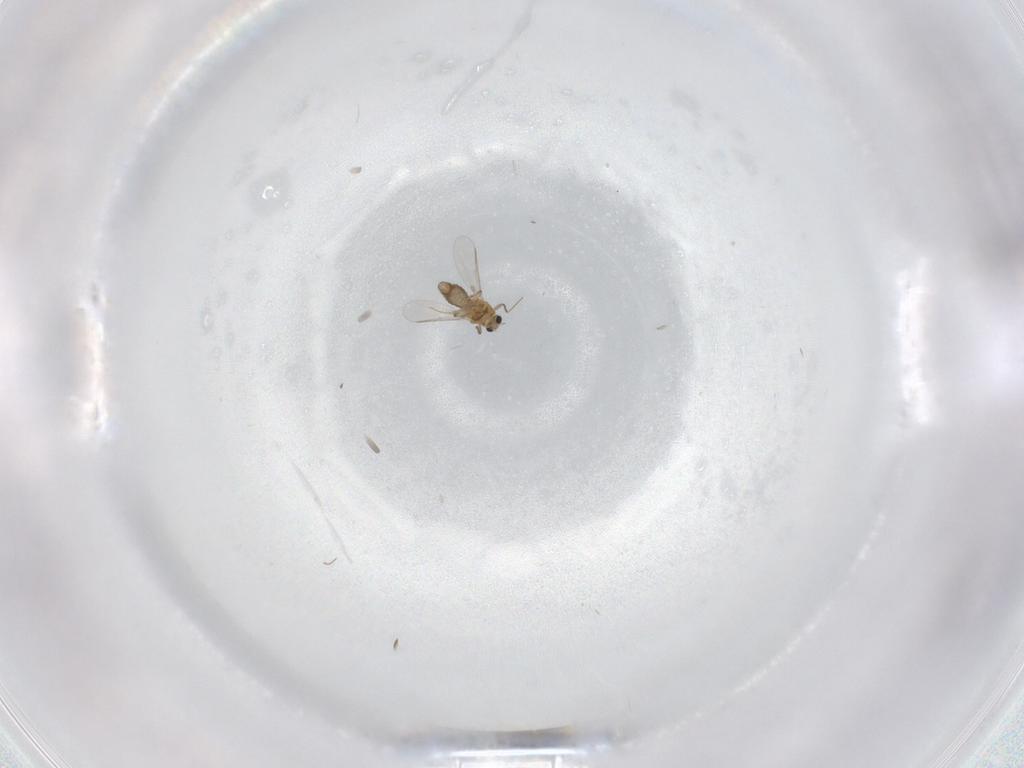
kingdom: Animalia
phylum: Arthropoda
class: Insecta
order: Diptera
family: Chironomidae
